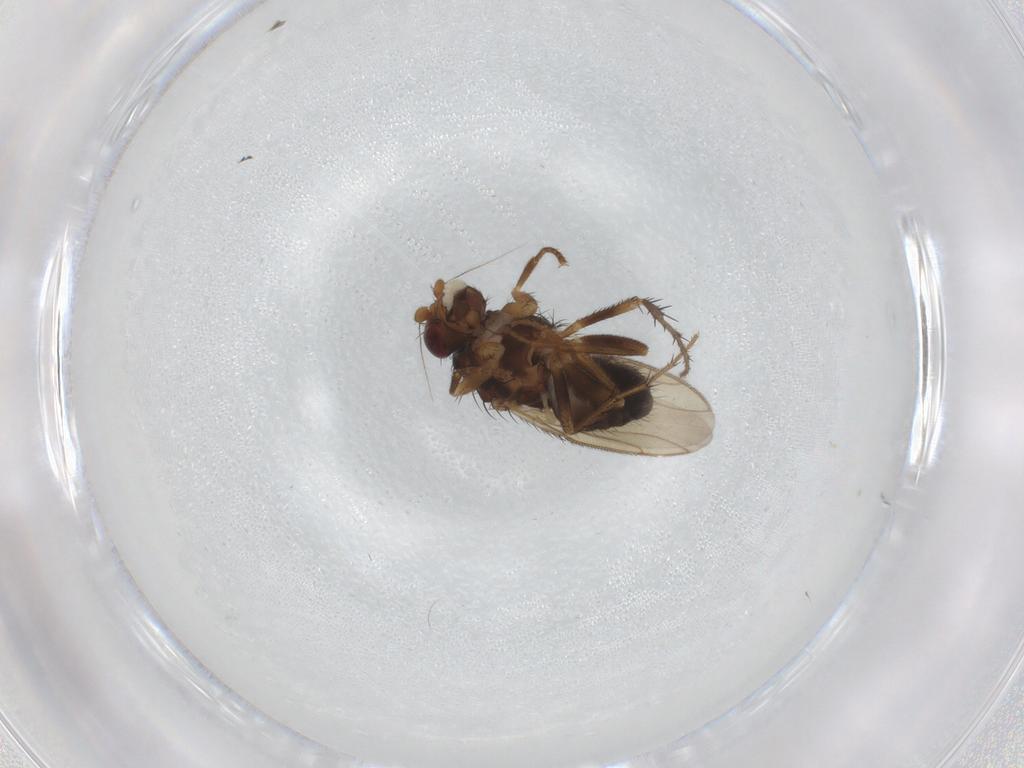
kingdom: Animalia
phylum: Arthropoda
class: Insecta
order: Diptera
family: Sphaeroceridae
